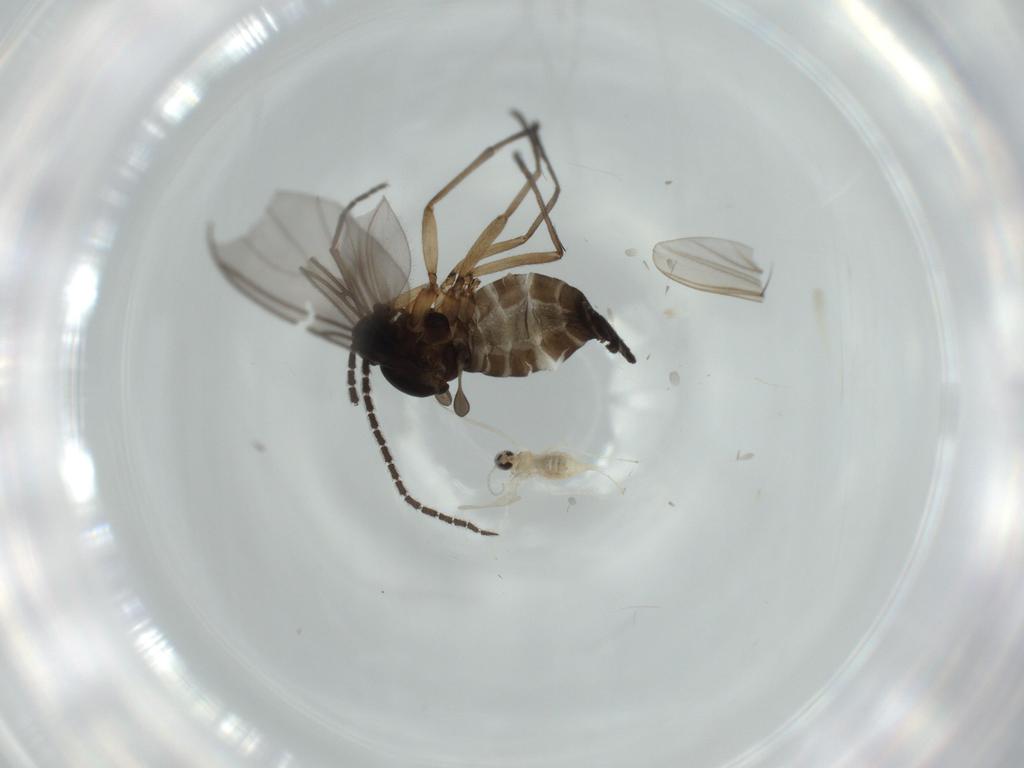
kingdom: Animalia
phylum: Arthropoda
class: Insecta
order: Diptera
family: Cecidomyiidae
